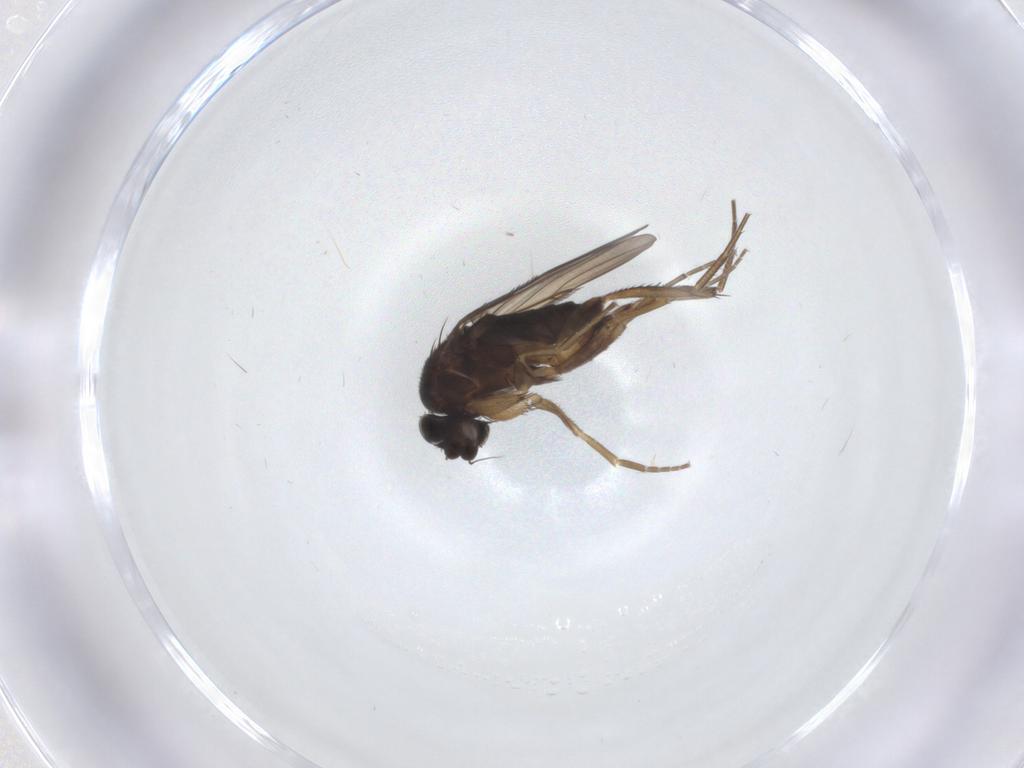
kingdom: Animalia
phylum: Arthropoda
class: Insecta
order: Diptera
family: Phoridae
